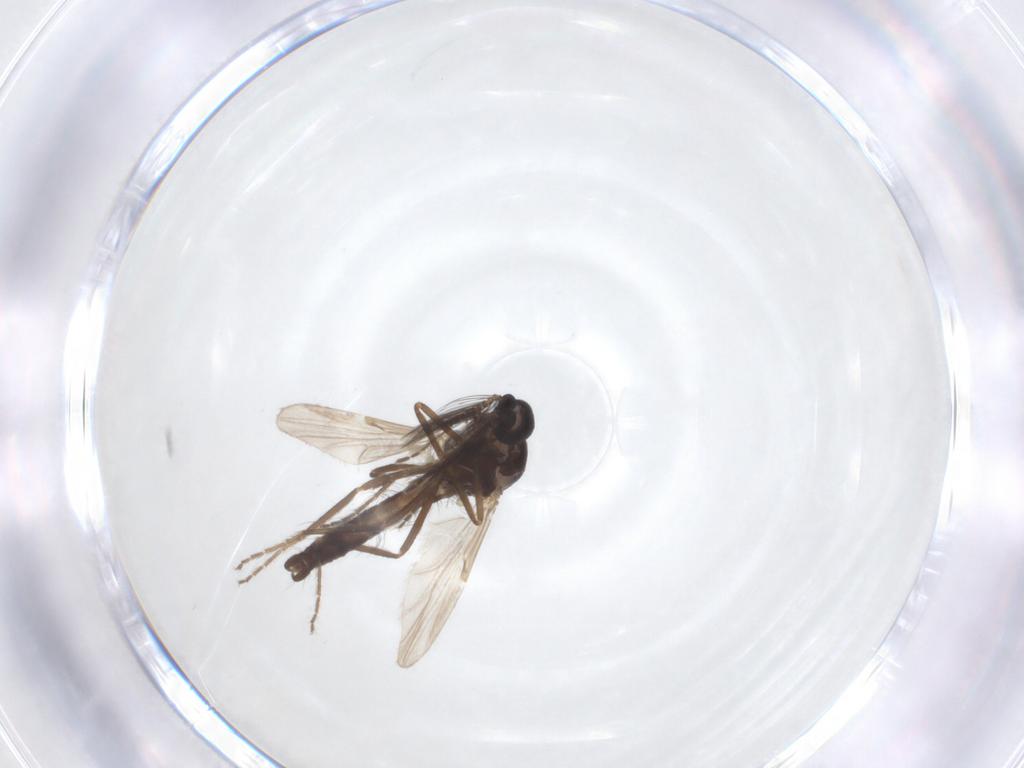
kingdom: Animalia
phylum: Arthropoda
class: Insecta
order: Diptera
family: Ceratopogonidae
